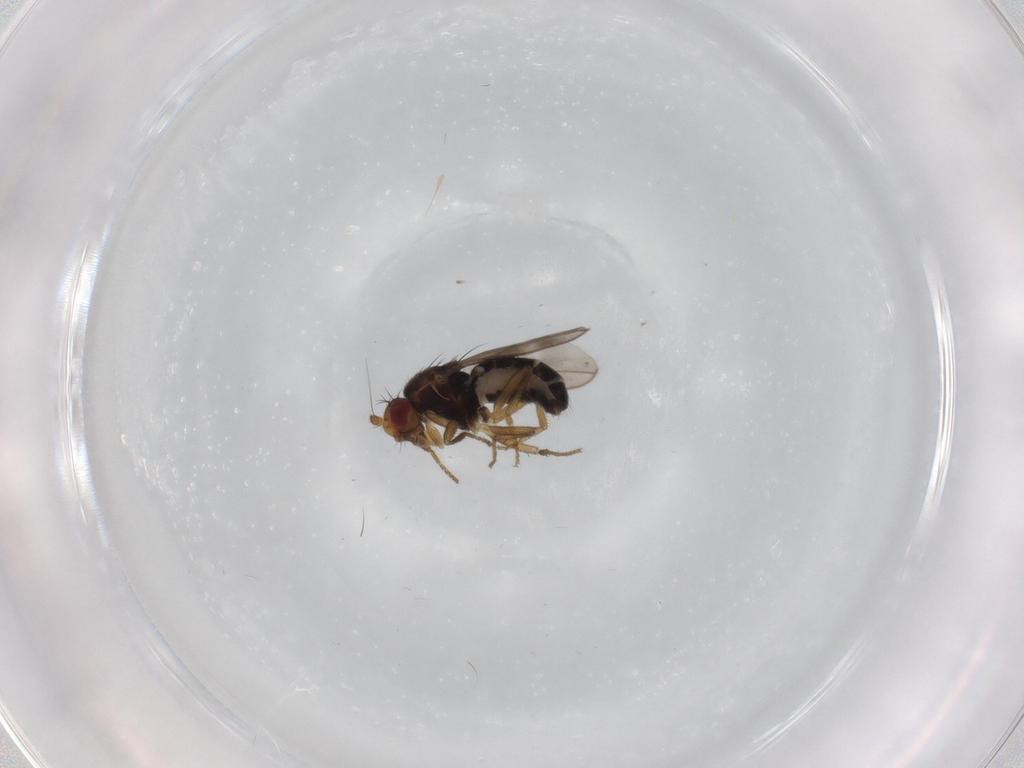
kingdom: Animalia
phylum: Arthropoda
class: Insecta
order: Diptera
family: Sphaeroceridae
